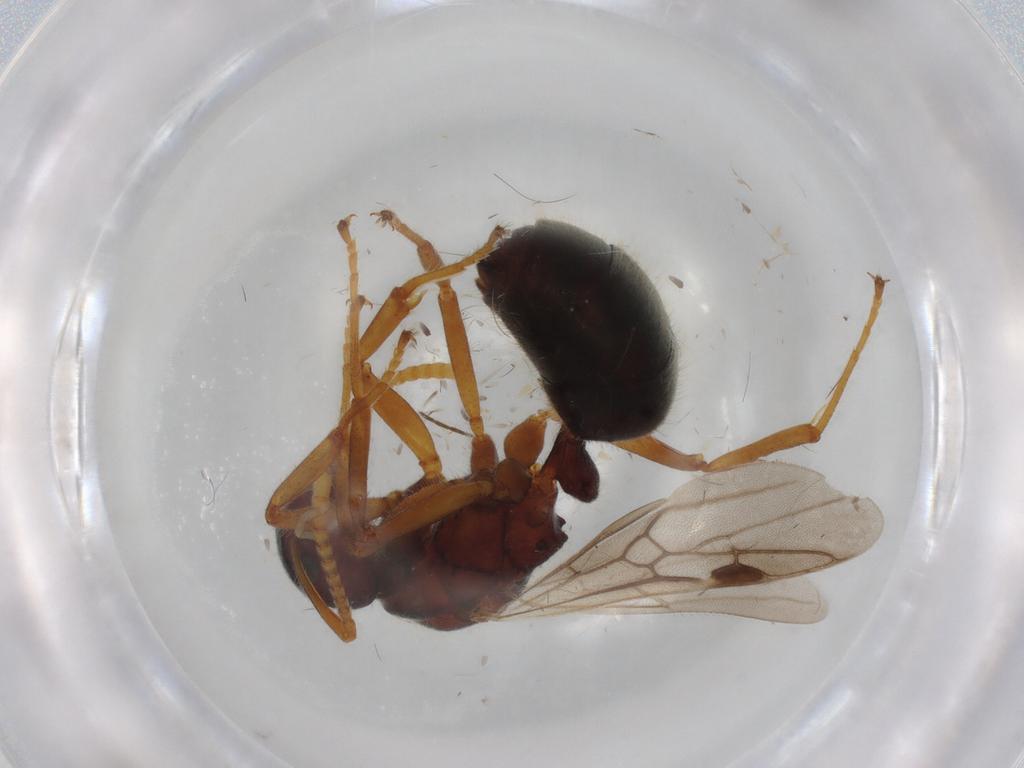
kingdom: Animalia
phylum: Arthropoda
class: Insecta
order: Hymenoptera
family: Formicidae
